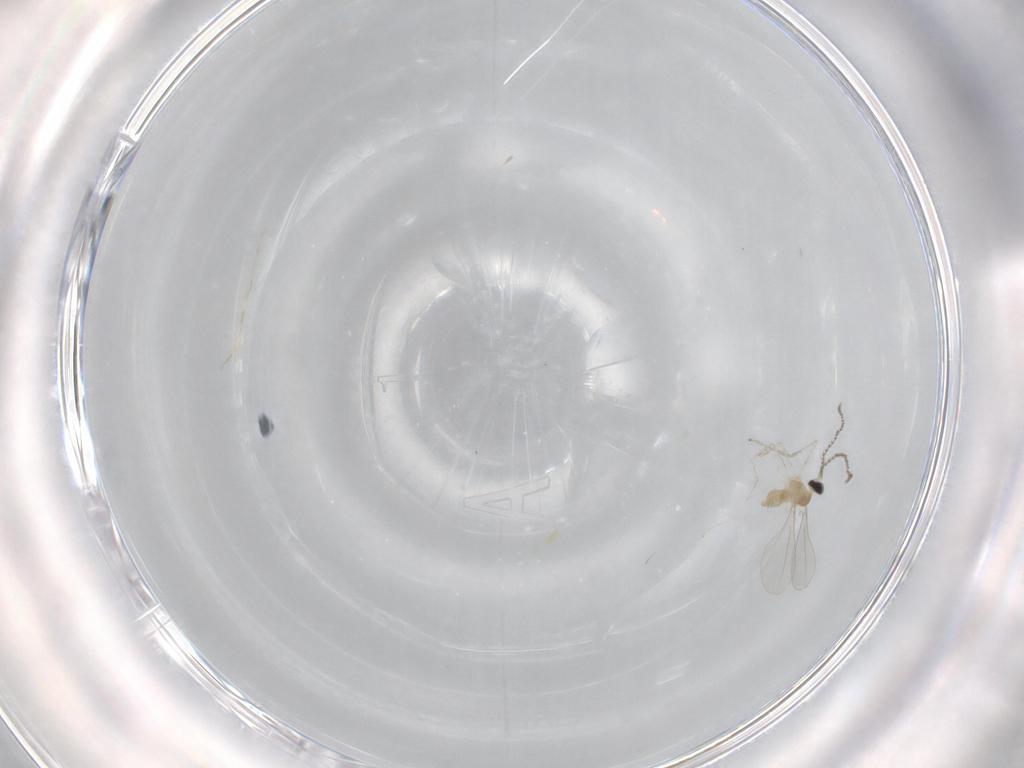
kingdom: Animalia
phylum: Arthropoda
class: Insecta
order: Diptera
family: Cecidomyiidae
